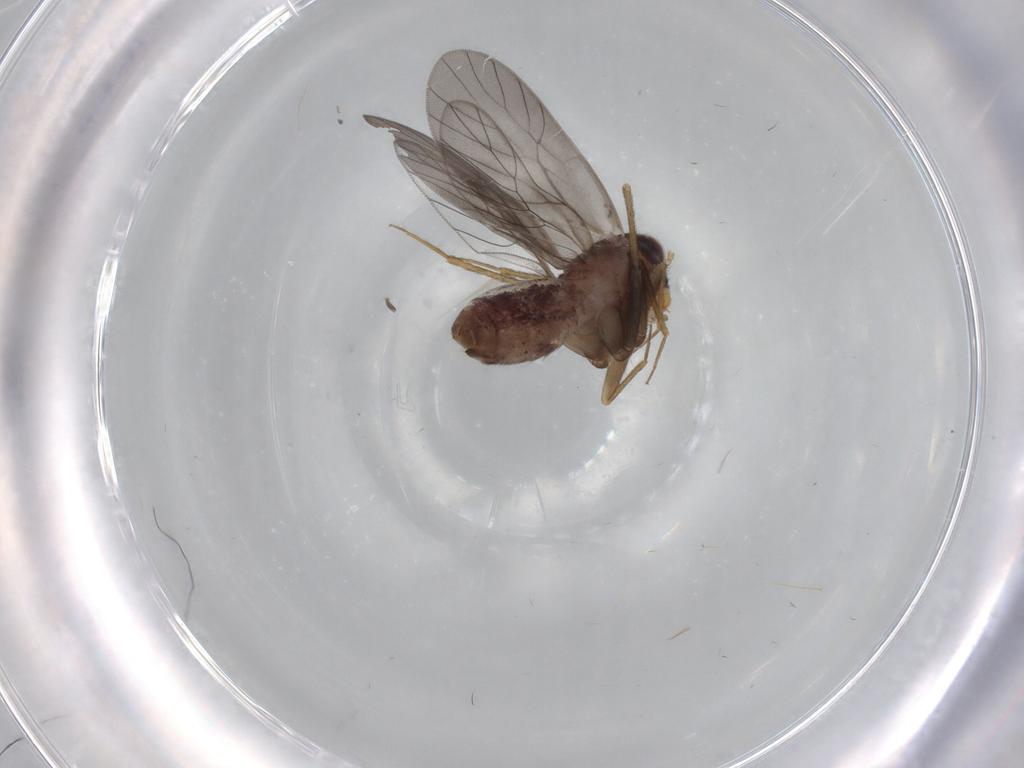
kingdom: Animalia
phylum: Arthropoda
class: Insecta
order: Diptera
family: Cecidomyiidae
